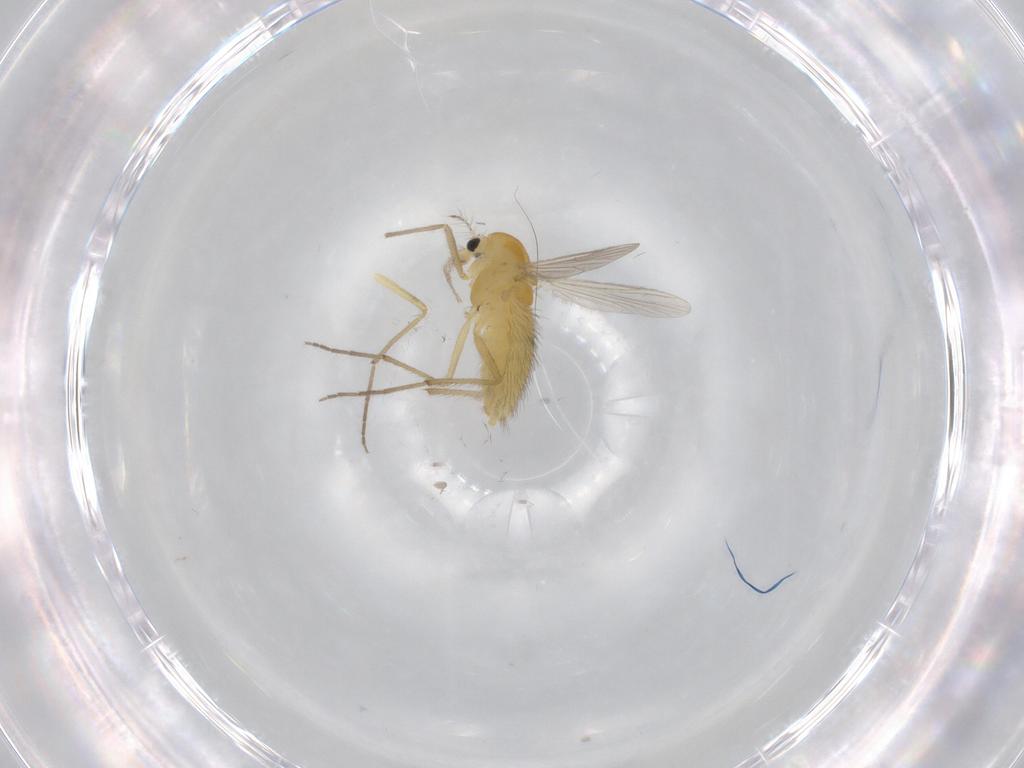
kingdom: Animalia
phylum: Arthropoda
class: Insecta
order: Diptera
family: Chironomidae
